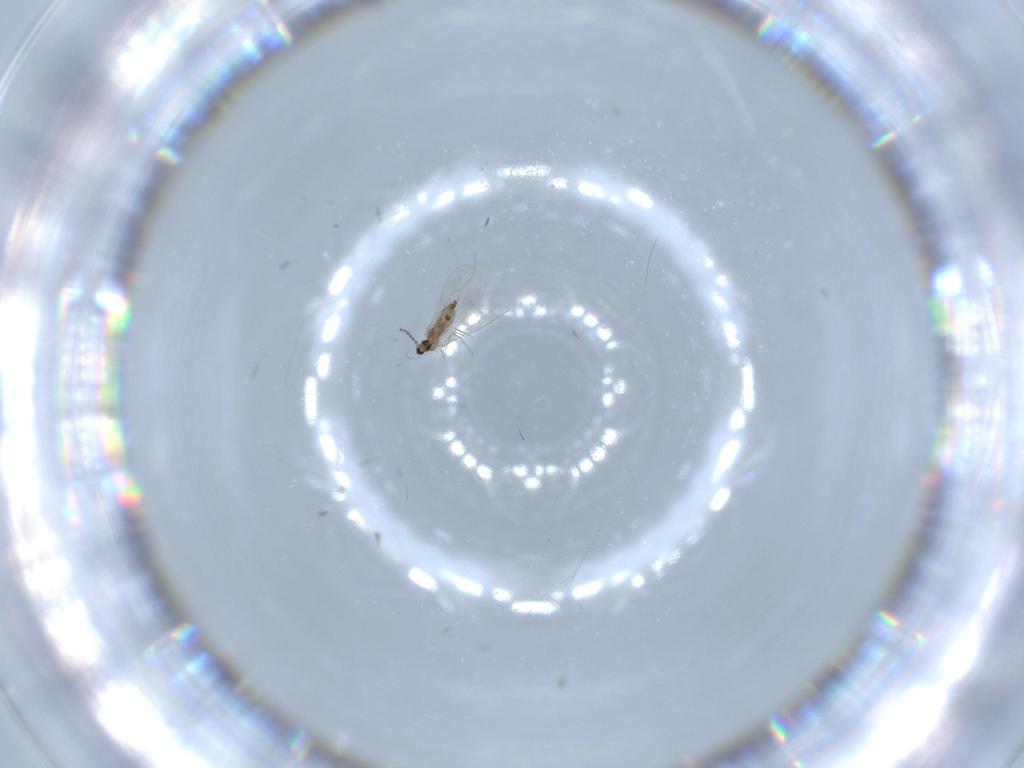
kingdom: Animalia
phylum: Arthropoda
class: Insecta
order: Diptera
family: Cecidomyiidae
